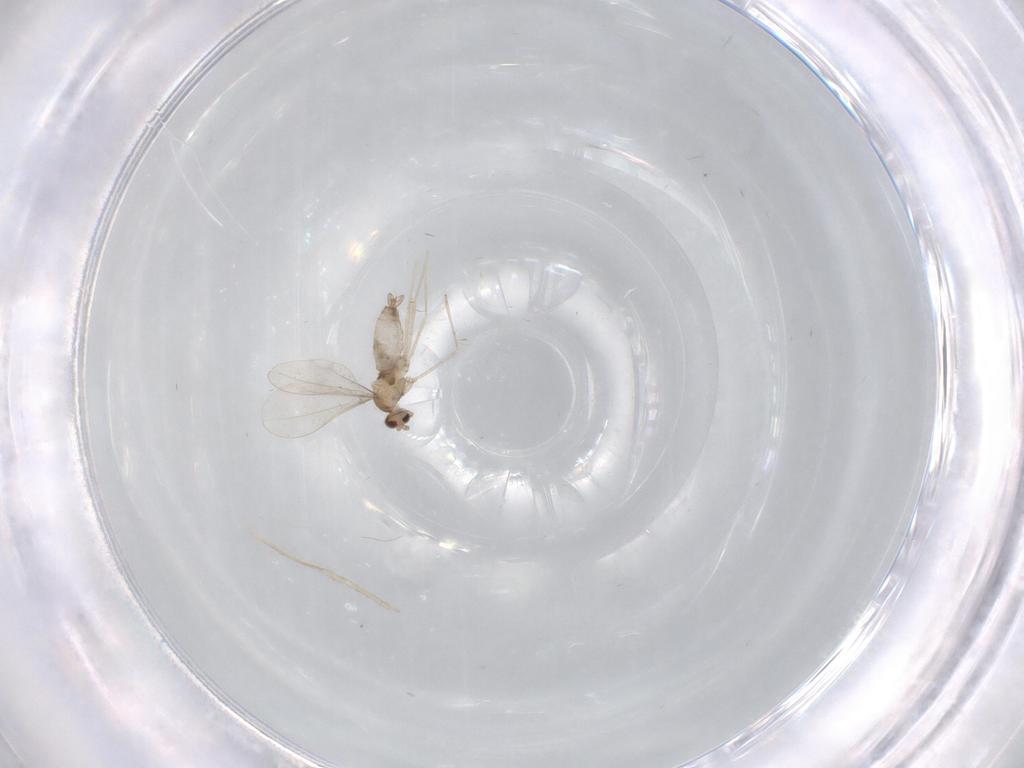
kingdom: Animalia
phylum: Arthropoda
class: Insecta
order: Diptera
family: Cecidomyiidae
